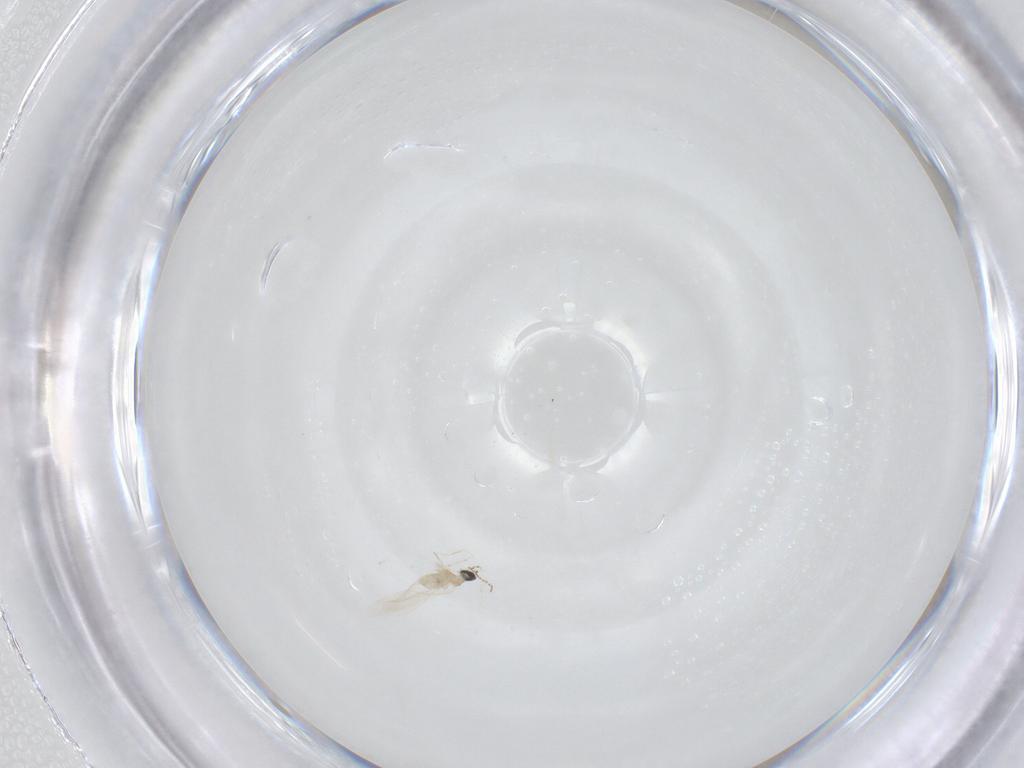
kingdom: Animalia
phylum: Arthropoda
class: Insecta
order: Diptera
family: Cecidomyiidae
